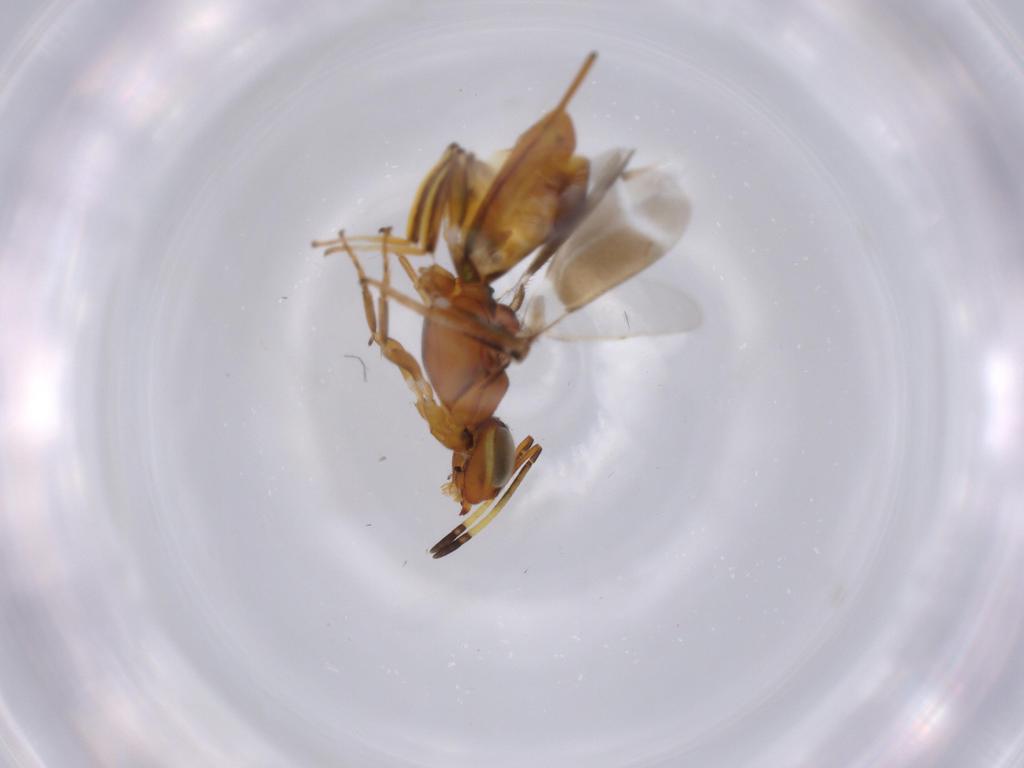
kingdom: Animalia
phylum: Arthropoda
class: Insecta
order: Hymenoptera
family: Eupelmidae
